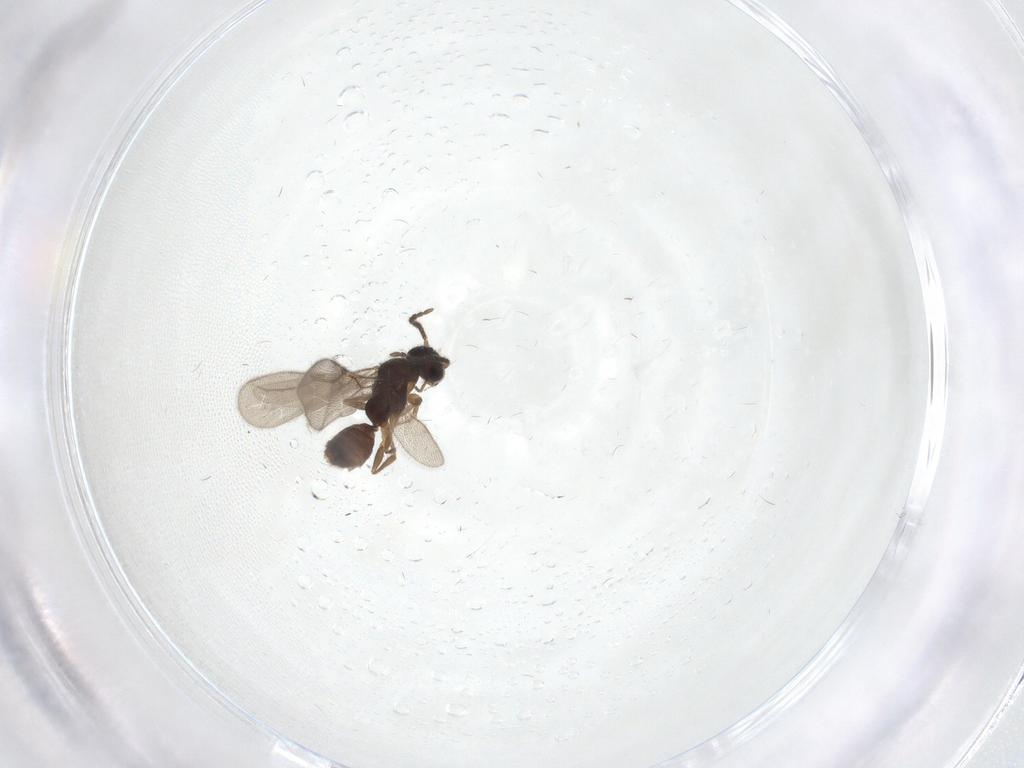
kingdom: Animalia
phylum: Arthropoda
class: Insecta
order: Hymenoptera
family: Bethylidae
